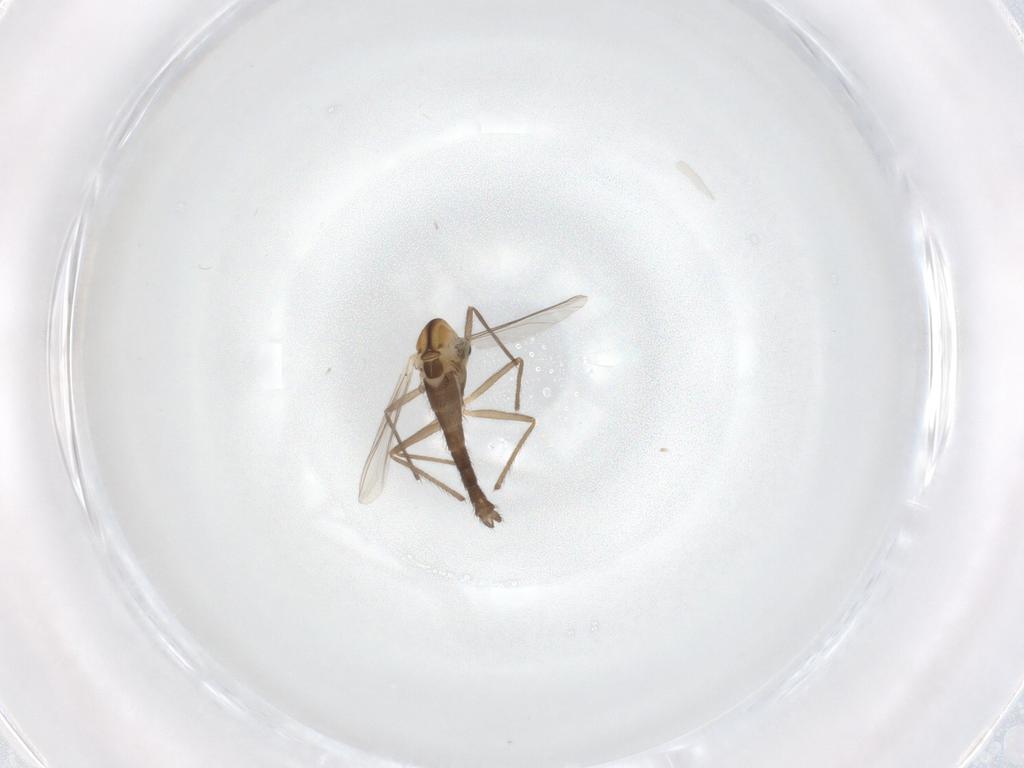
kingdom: Animalia
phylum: Arthropoda
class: Insecta
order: Diptera
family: Chironomidae
